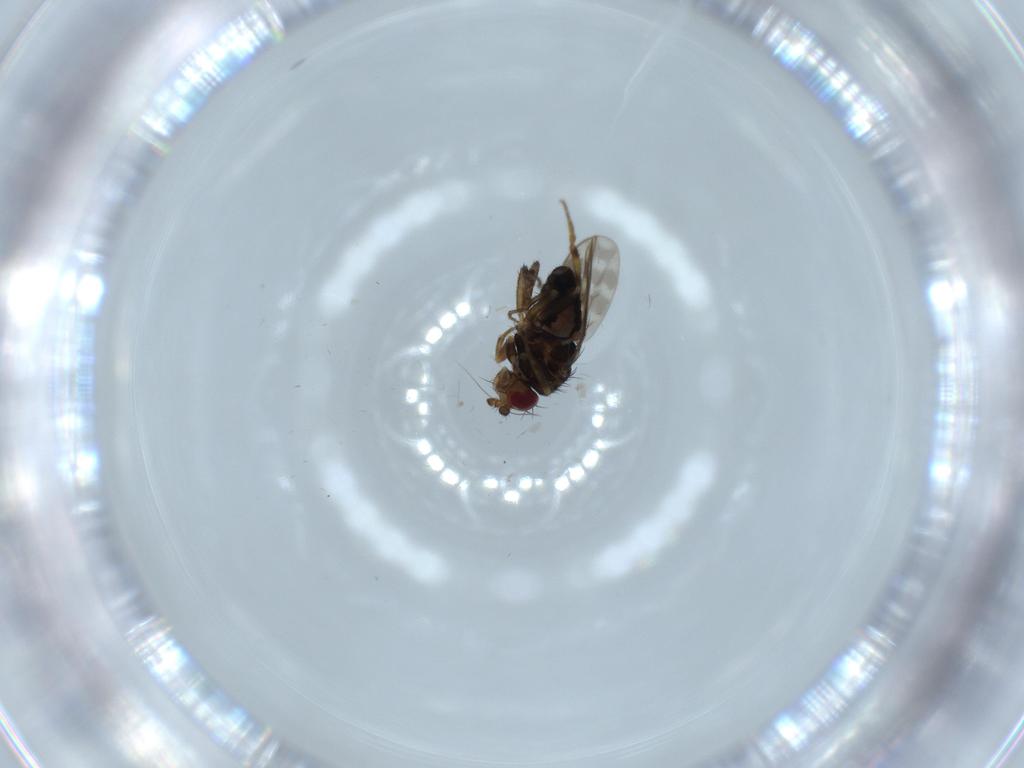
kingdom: Animalia
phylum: Arthropoda
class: Insecta
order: Diptera
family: Sphaeroceridae
